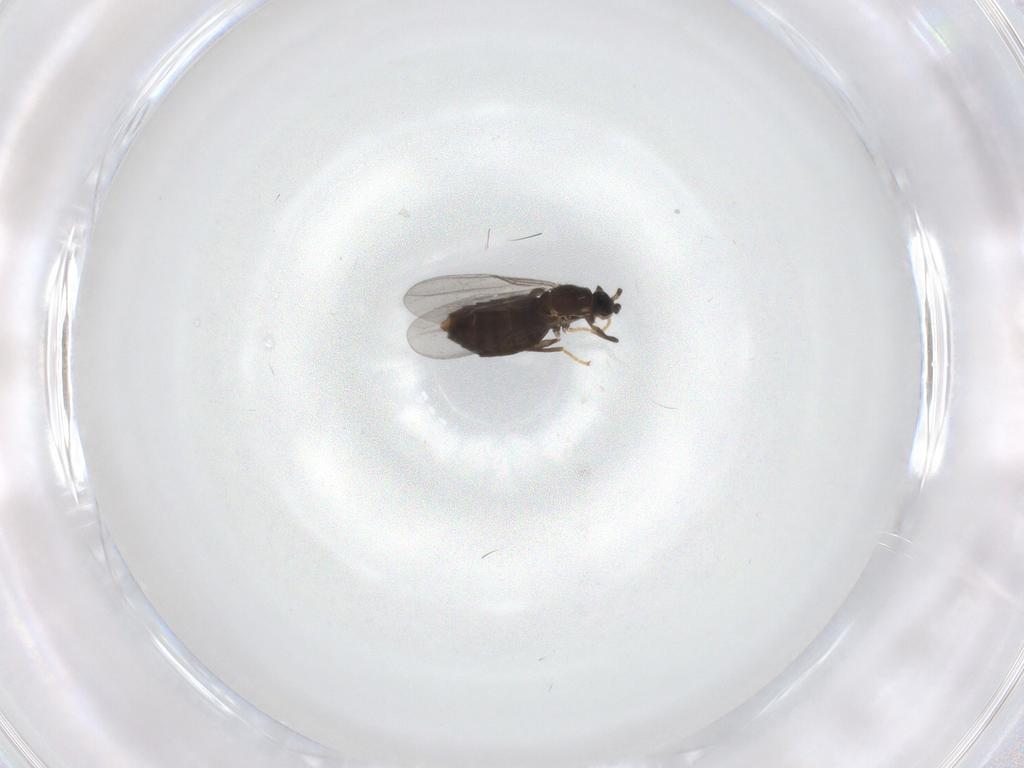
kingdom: Animalia
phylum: Arthropoda
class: Insecta
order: Diptera
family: Scatopsidae
